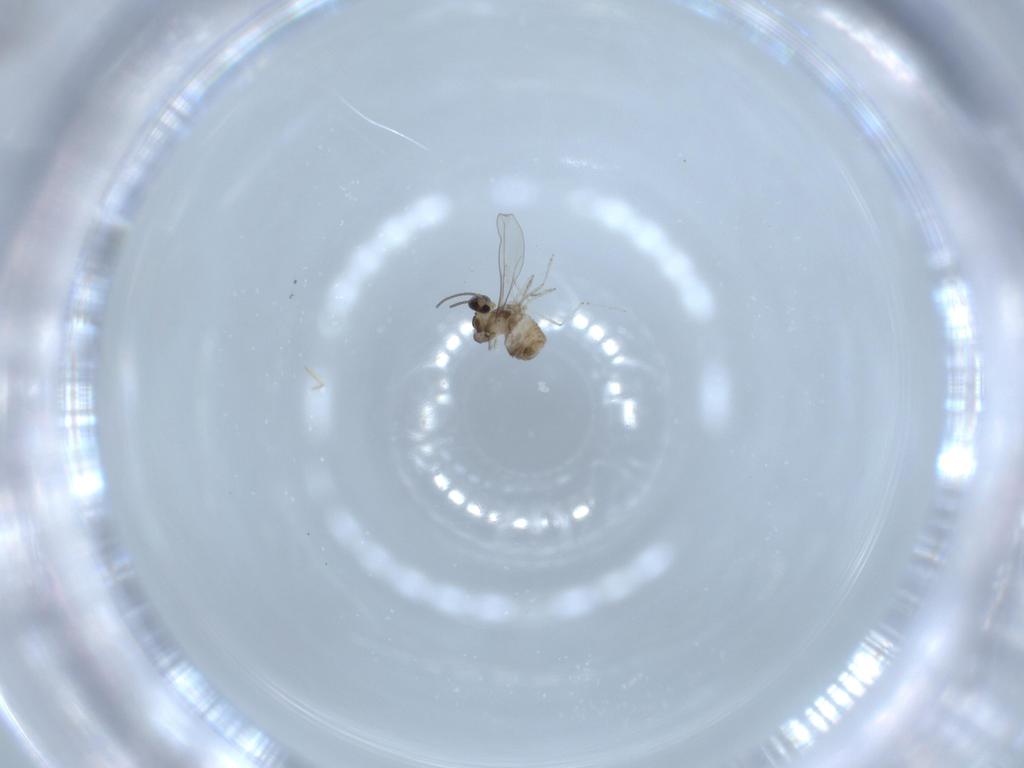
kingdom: Animalia
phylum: Arthropoda
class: Insecta
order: Diptera
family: Cecidomyiidae
